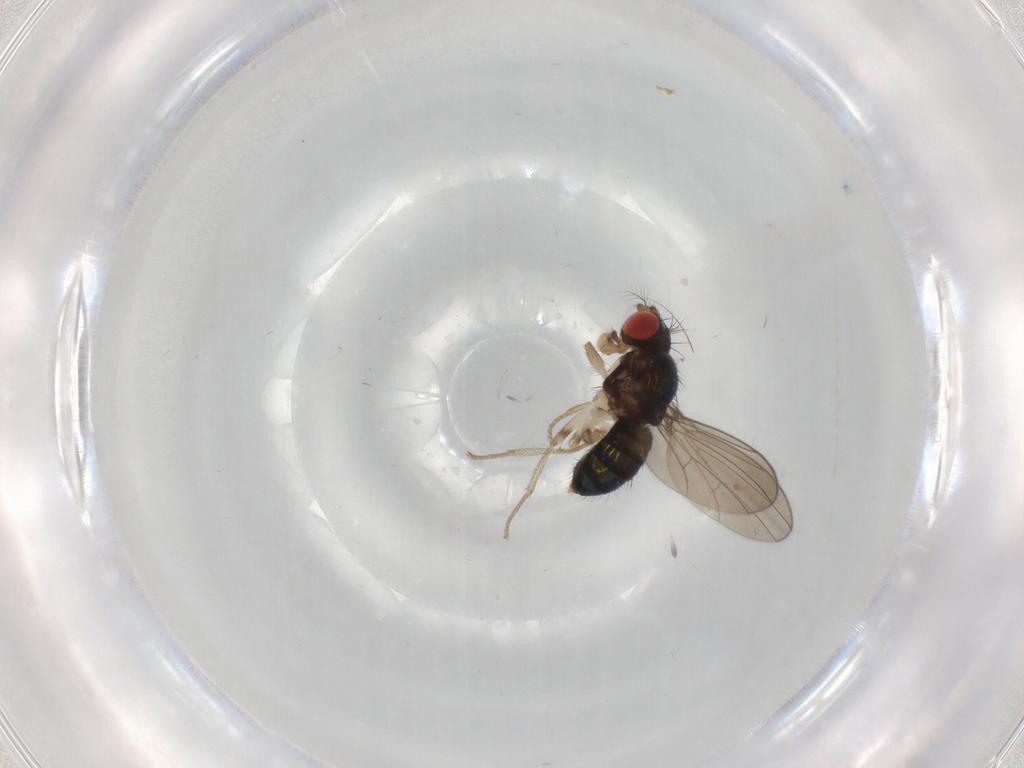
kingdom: Animalia
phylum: Arthropoda
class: Insecta
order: Diptera
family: Drosophilidae
